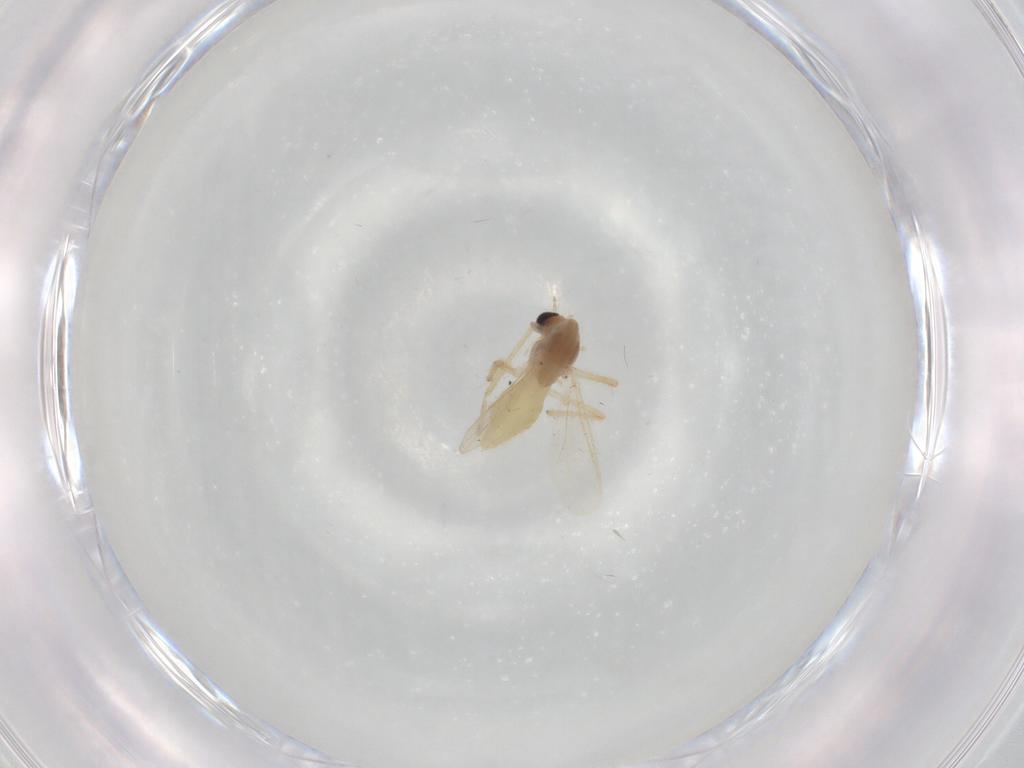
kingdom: Animalia
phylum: Arthropoda
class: Insecta
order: Diptera
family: Chironomidae
